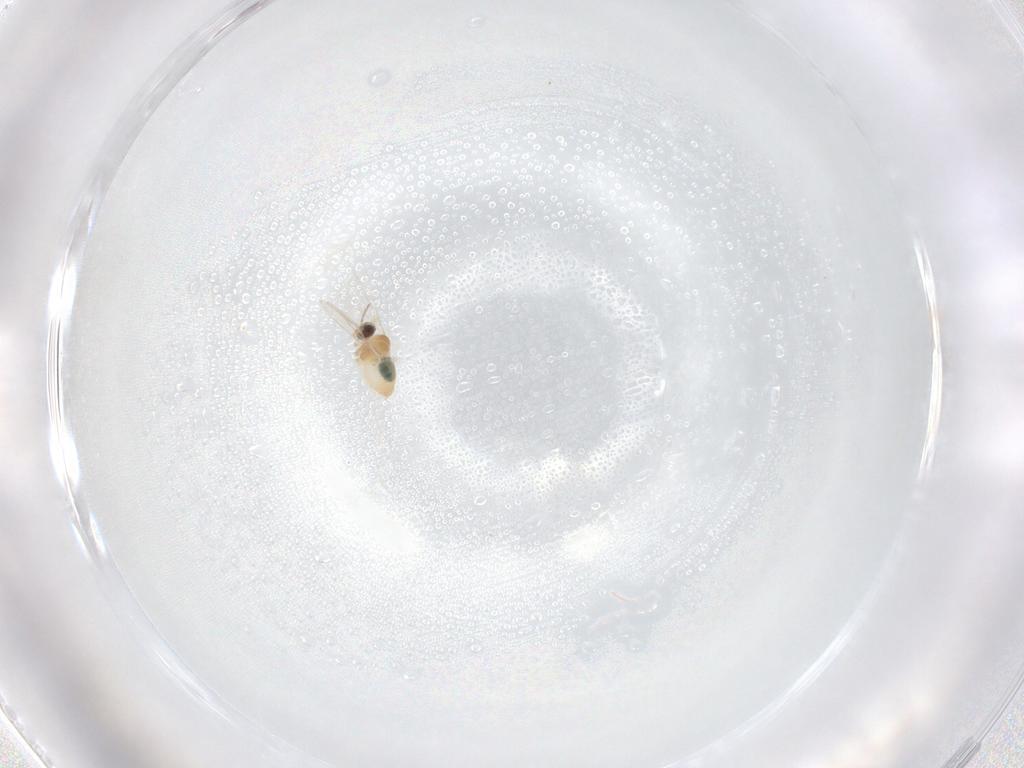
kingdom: Animalia
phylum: Arthropoda
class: Insecta
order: Diptera
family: Cecidomyiidae
